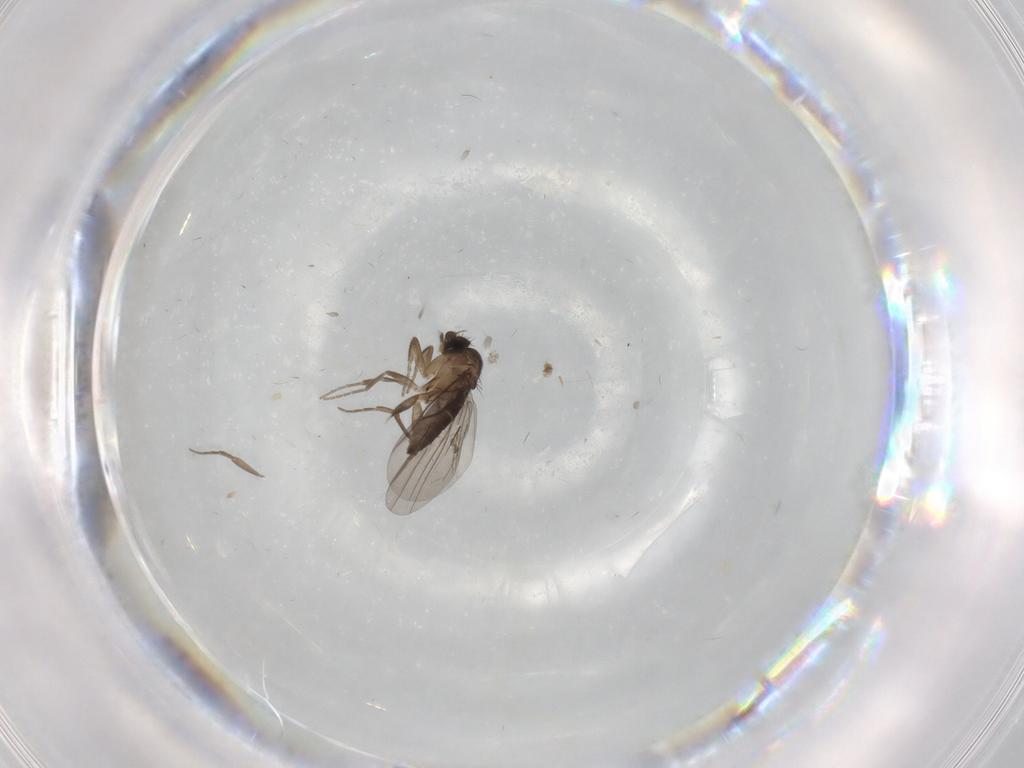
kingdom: Animalia
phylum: Arthropoda
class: Insecta
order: Diptera
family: Phoridae
